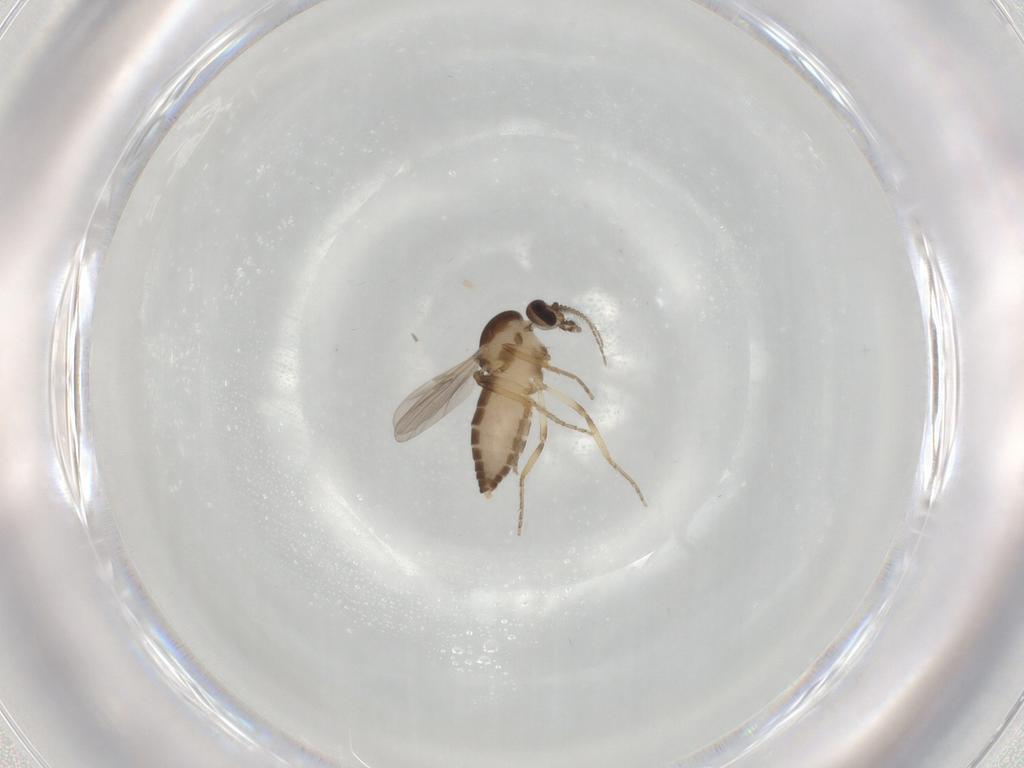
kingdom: Animalia
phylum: Arthropoda
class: Insecta
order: Diptera
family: Ceratopogonidae
